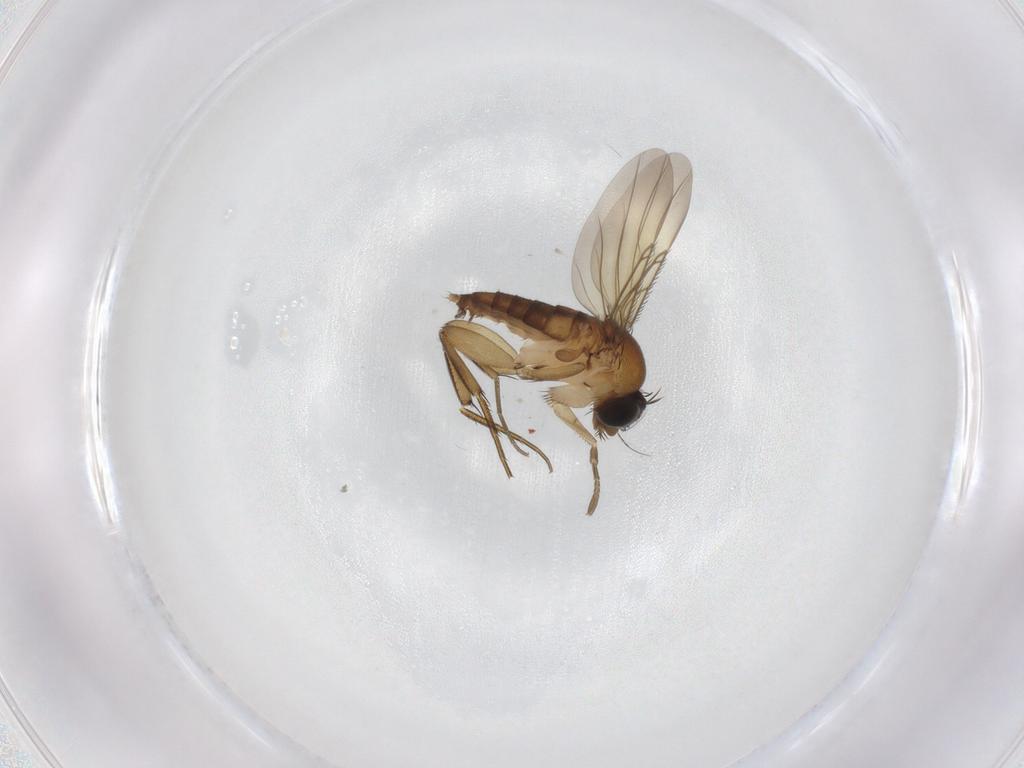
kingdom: Animalia
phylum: Arthropoda
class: Insecta
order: Diptera
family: Phoridae
